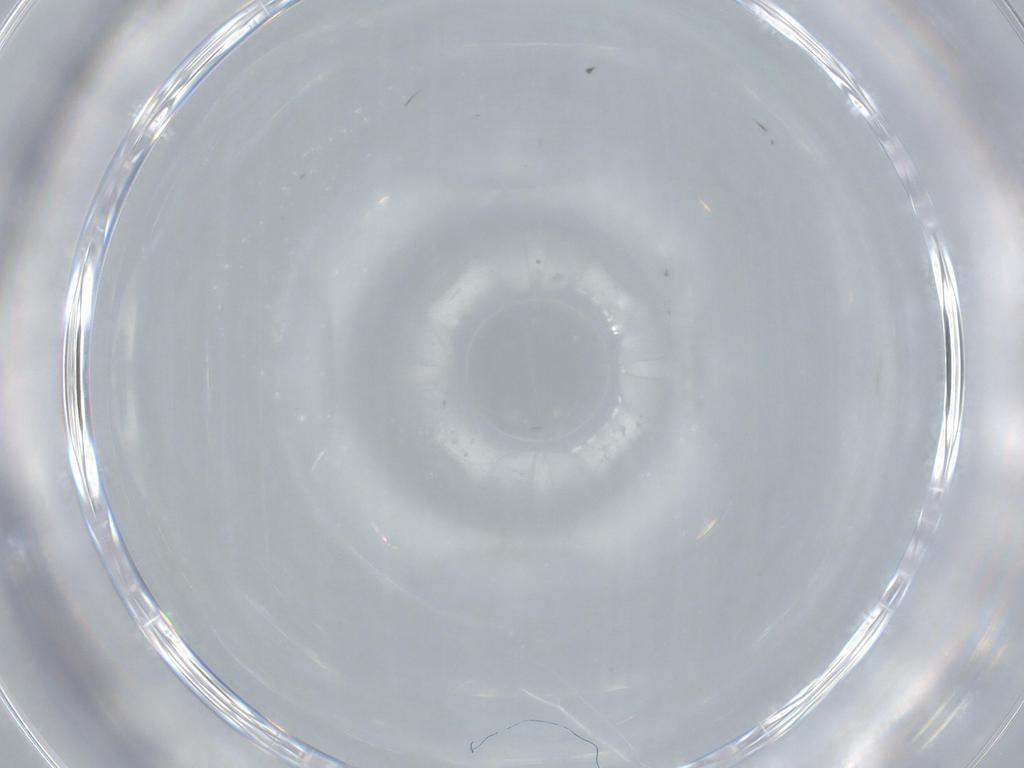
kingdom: Animalia
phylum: Arthropoda
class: Insecta
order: Diptera
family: Cecidomyiidae
